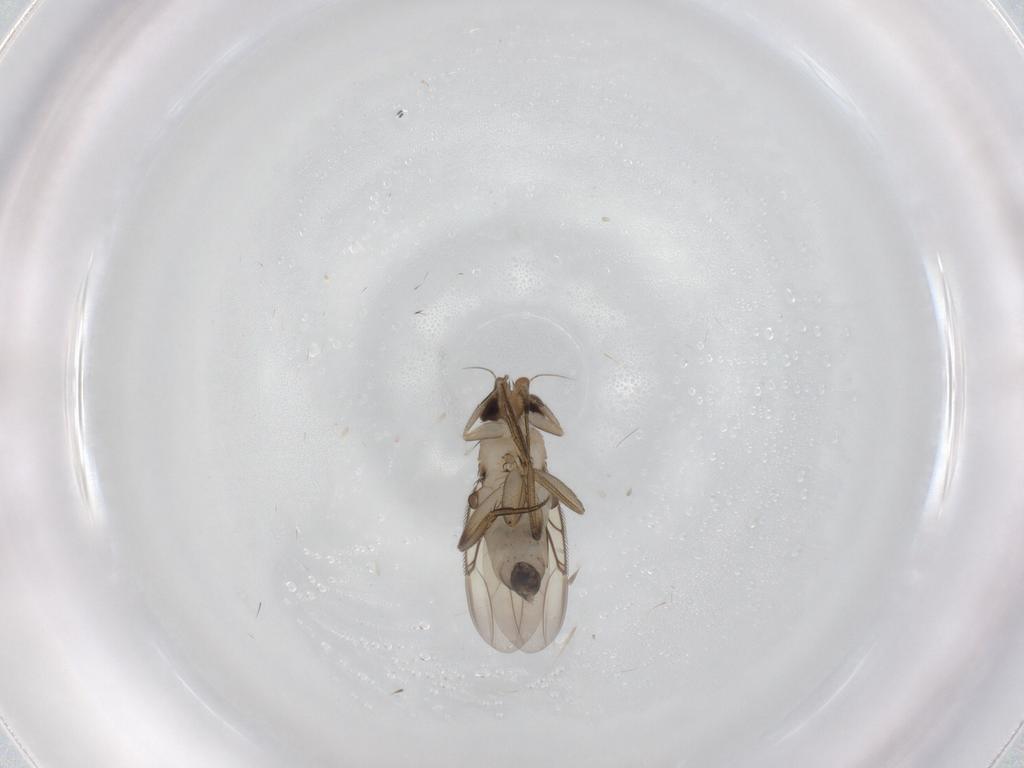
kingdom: Animalia
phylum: Arthropoda
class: Insecta
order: Diptera
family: Phoridae
